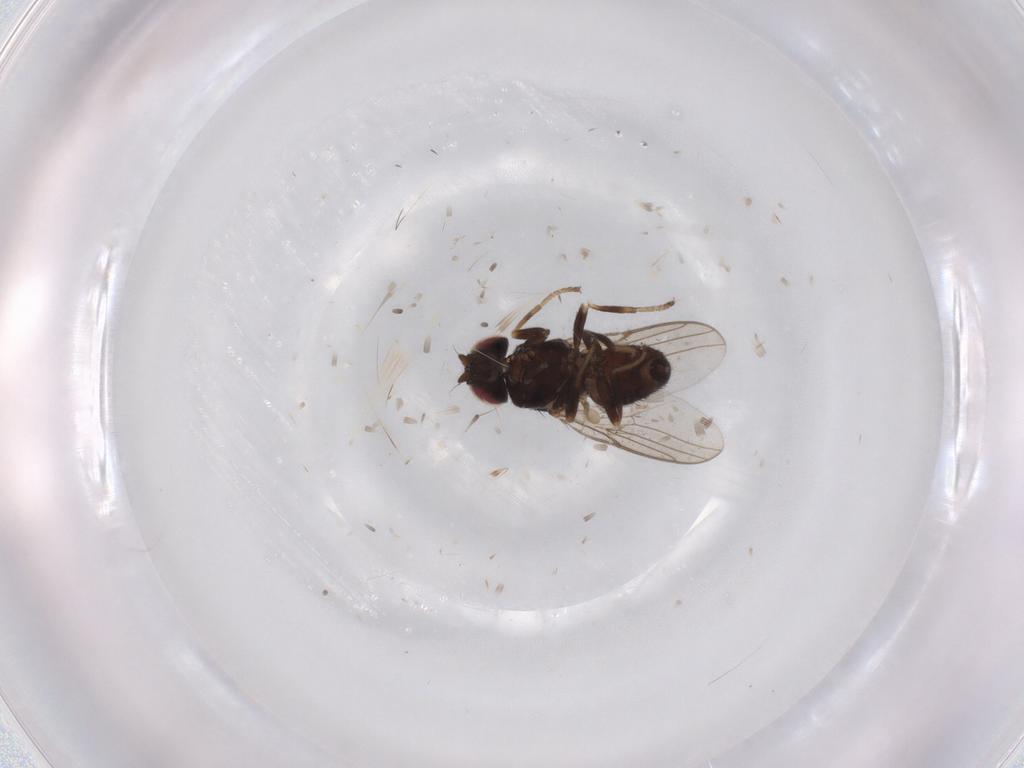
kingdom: Animalia
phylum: Arthropoda
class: Insecta
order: Diptera
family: Chloropidae
